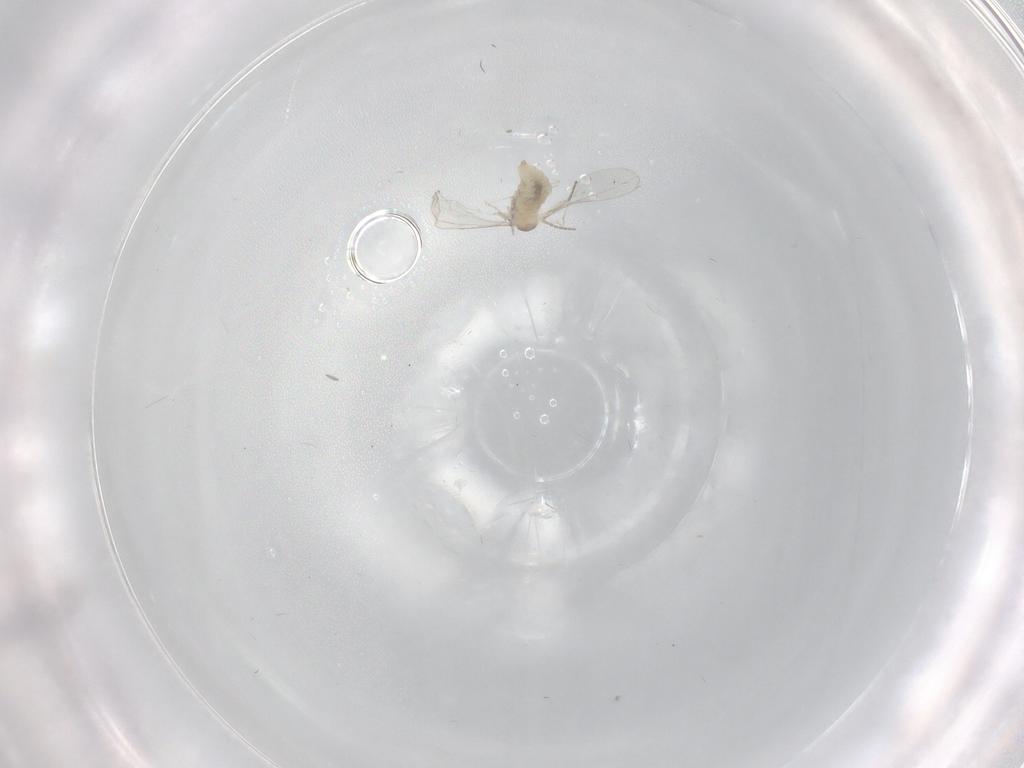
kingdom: Animalia
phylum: Arthropoda
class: Insecta
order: Diptera
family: Cecidomyiidae
